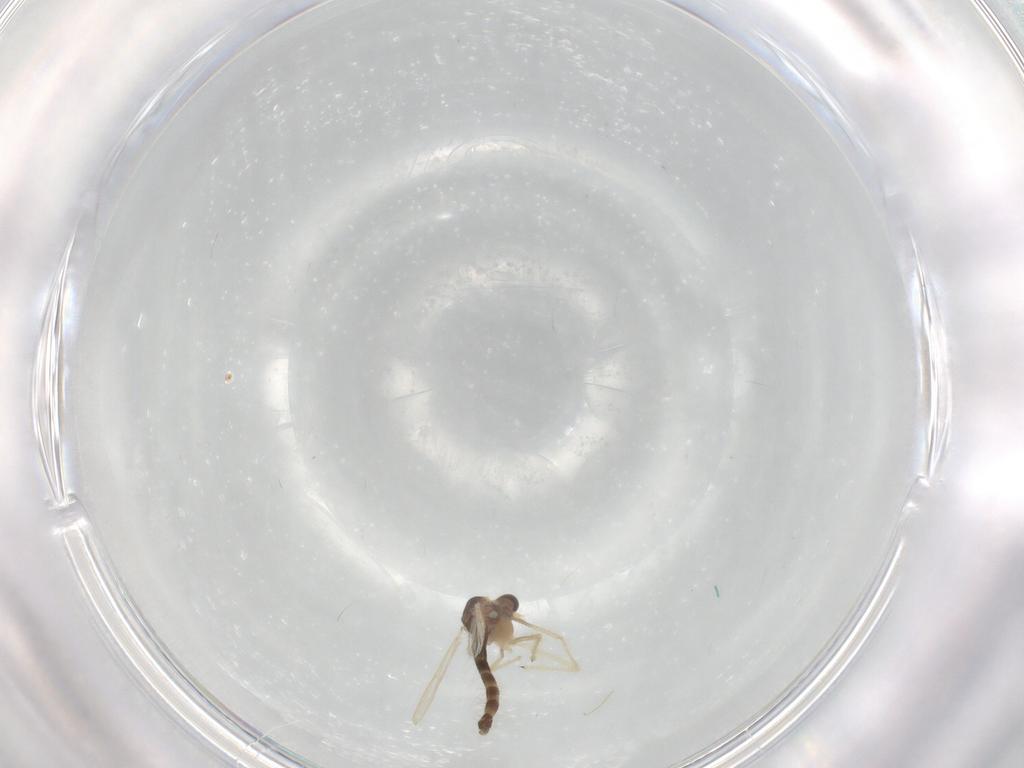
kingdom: Animalia
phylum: Arthropoda
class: Insecta
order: Diptera
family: Chironomidae
